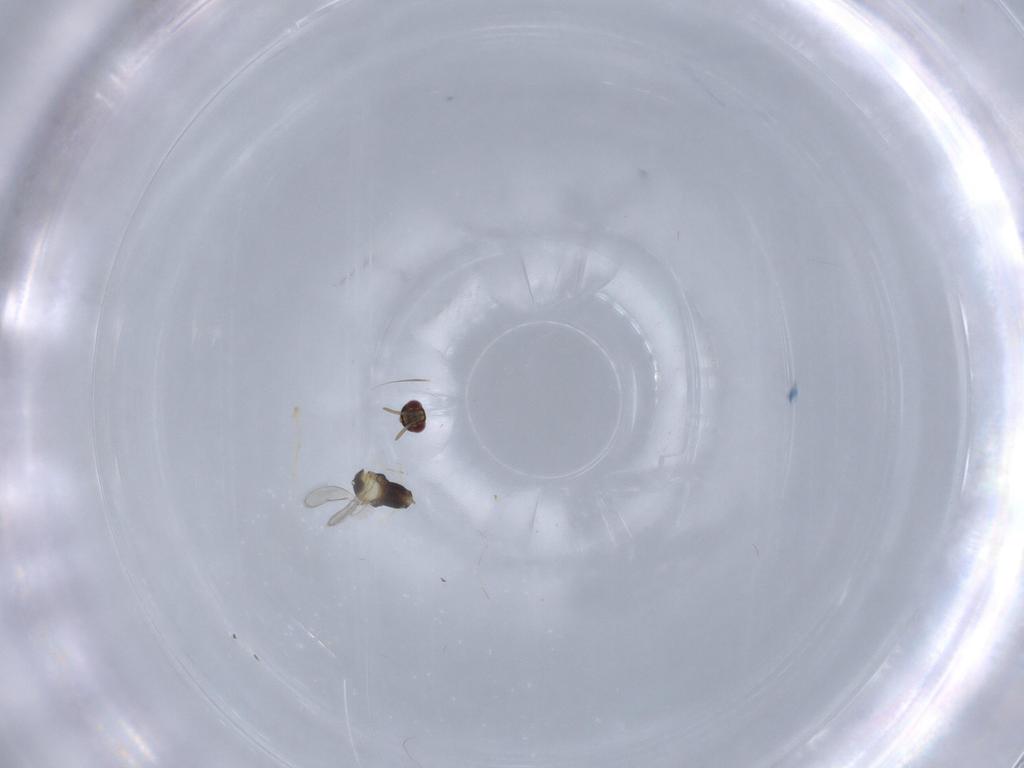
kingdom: Animalia
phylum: Arthropoda
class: Insecta
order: Hymenoptera
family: Aphelinidae
